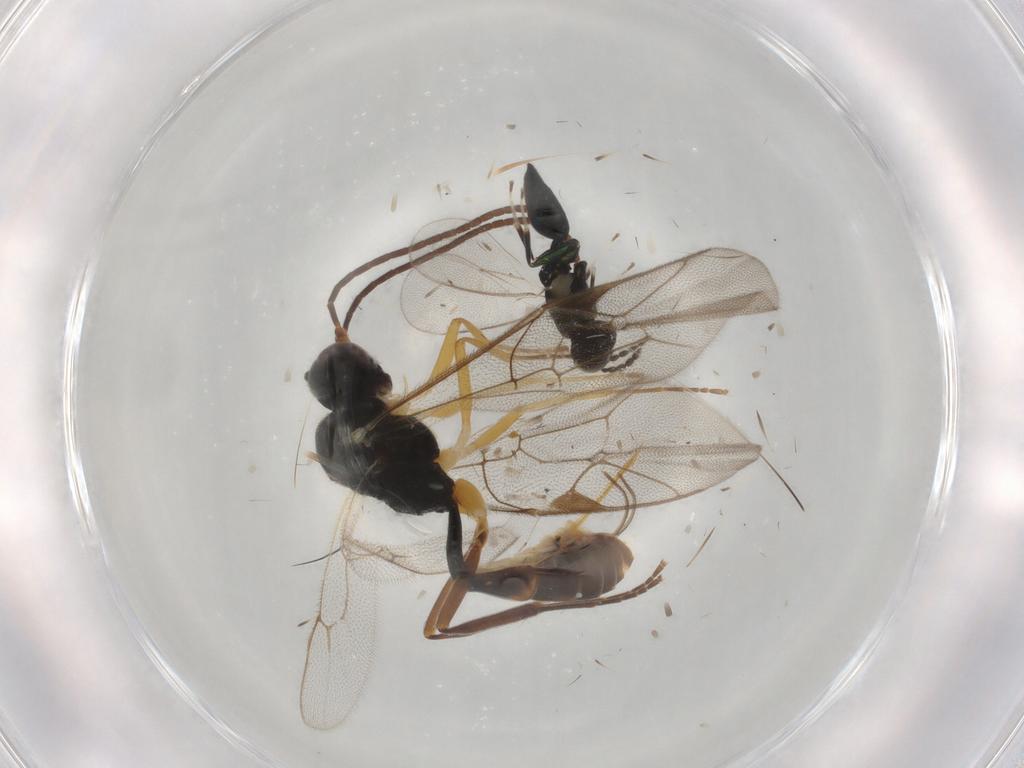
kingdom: Animalia
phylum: Arthropoda
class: Insecta
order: Hymenoptera
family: Eulophidae
